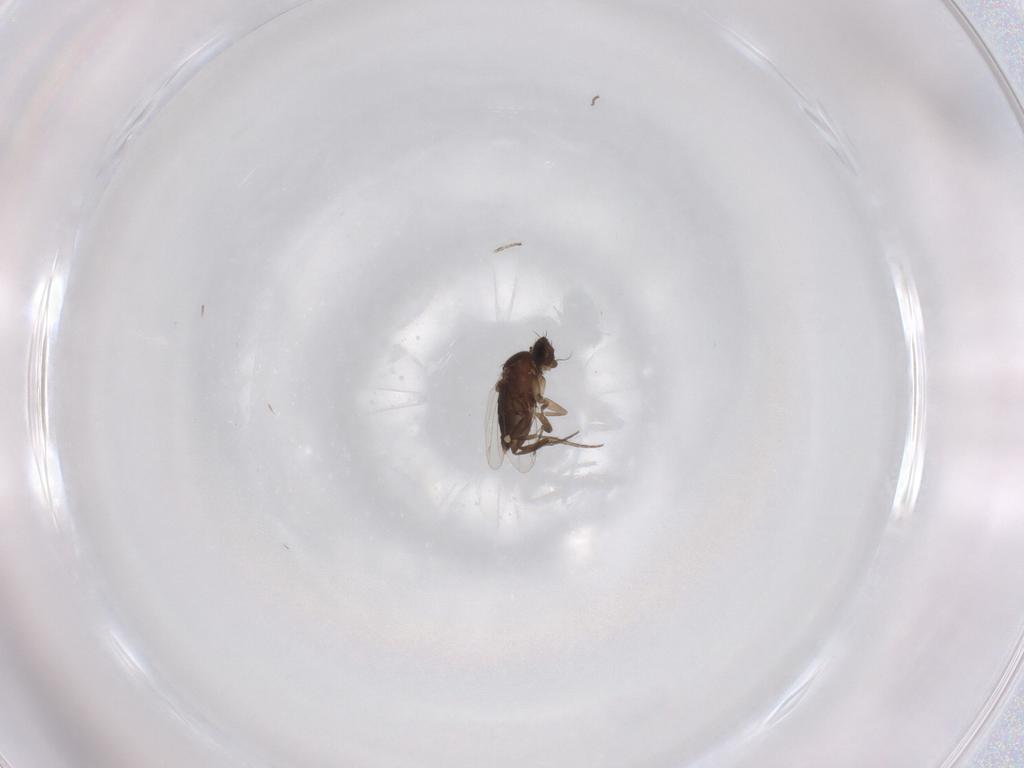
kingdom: Animalia
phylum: Arthropoda
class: Insecta
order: Diptera
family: Phoridae
